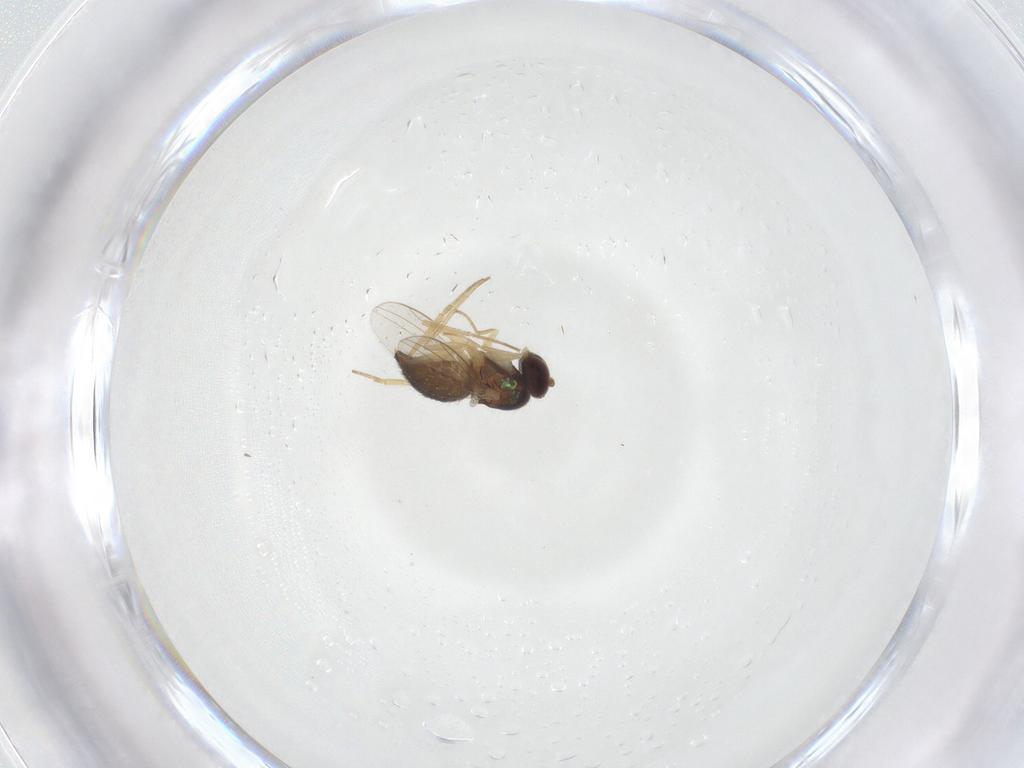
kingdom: Animalia
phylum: Arthropoda
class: Insecta
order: Diptera
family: Dolichopodidae
